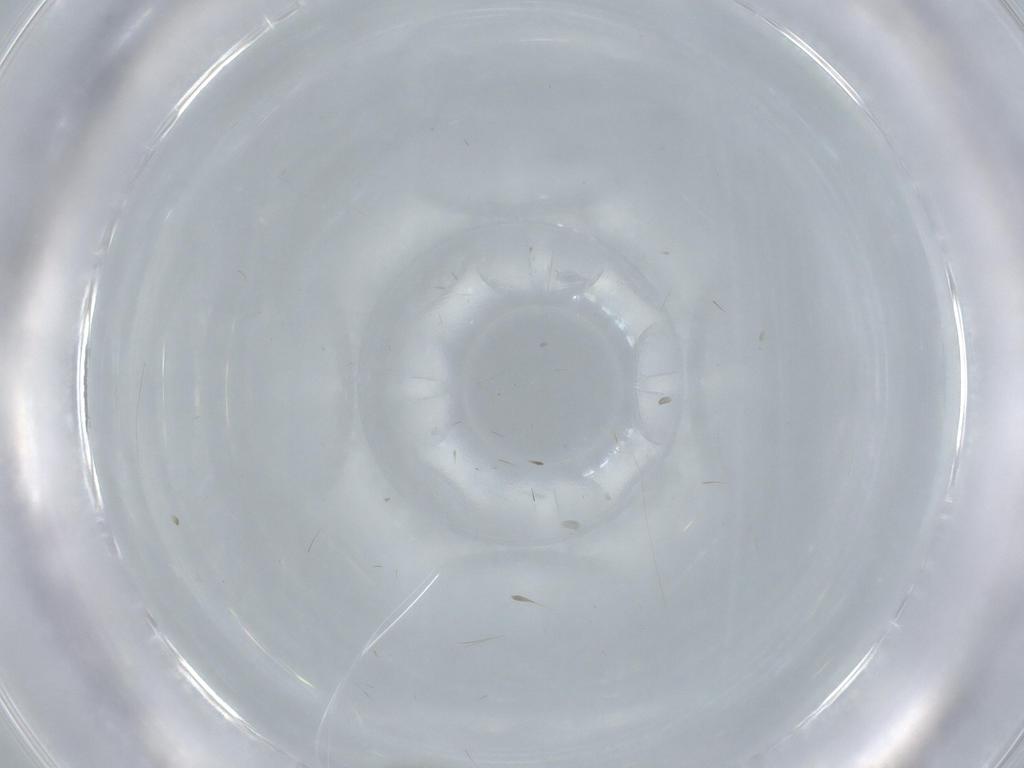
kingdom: Animalia
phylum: Arthropoda
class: Insecta
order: Diptera
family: Ceratopogonidae
